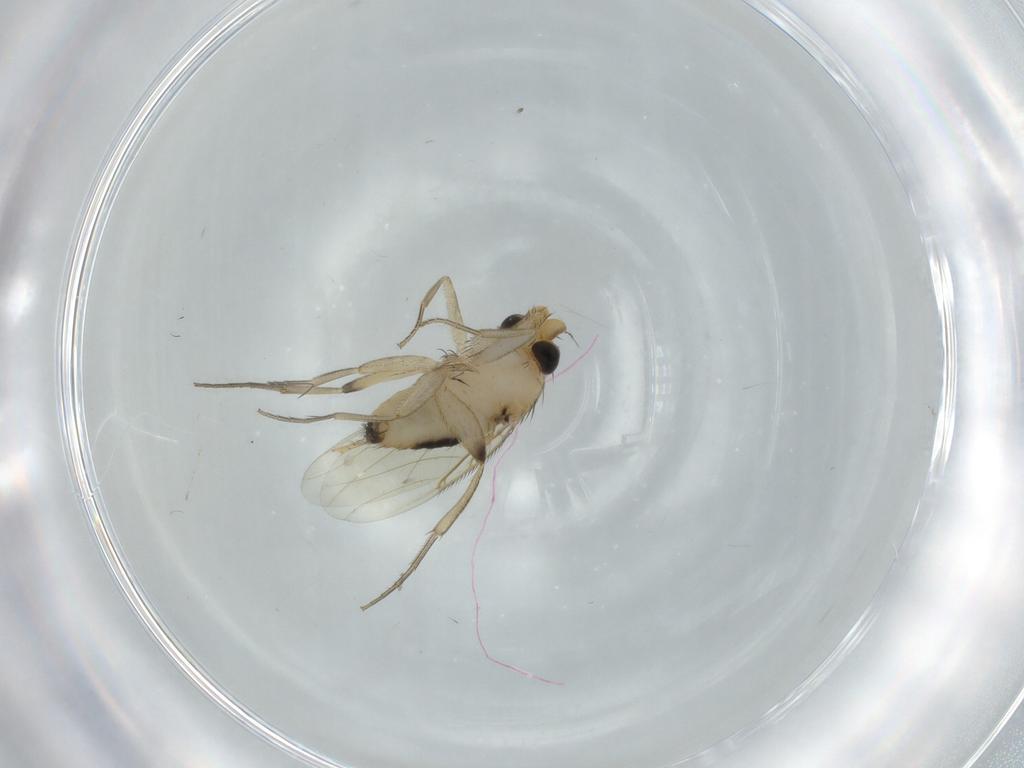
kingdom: Animalia
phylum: Arthropoda
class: Insecta
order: Diptera
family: Phoridae
